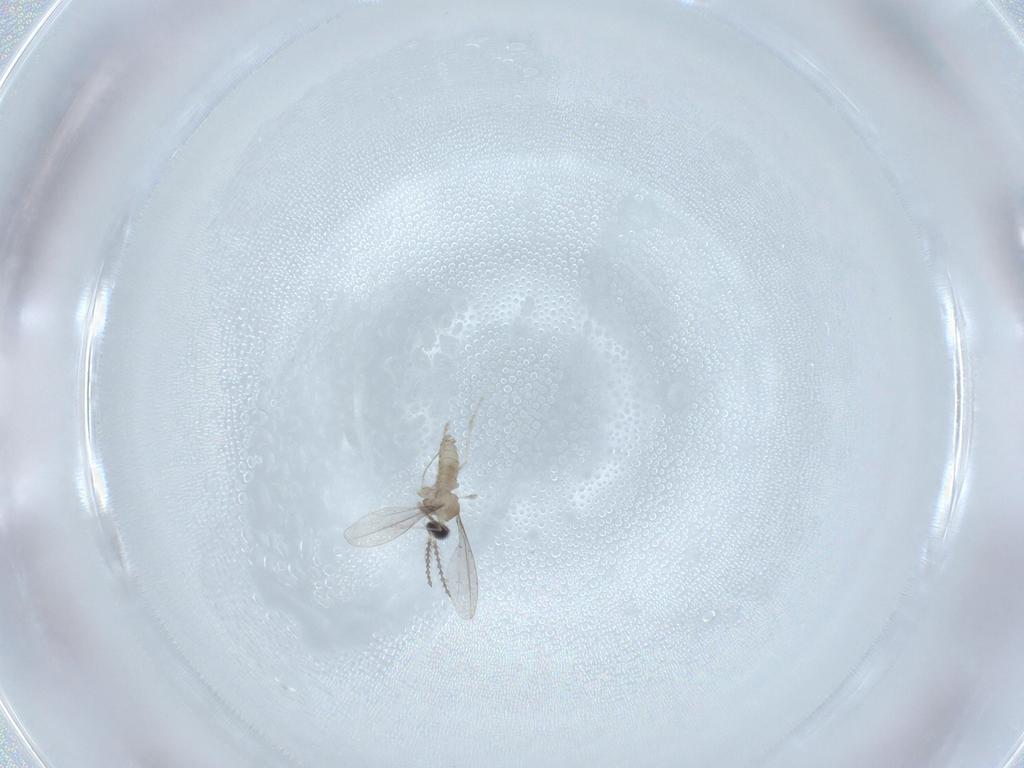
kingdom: Animalia
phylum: Arthropoda
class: Insecta
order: Diptera
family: Cecidomyiidae
